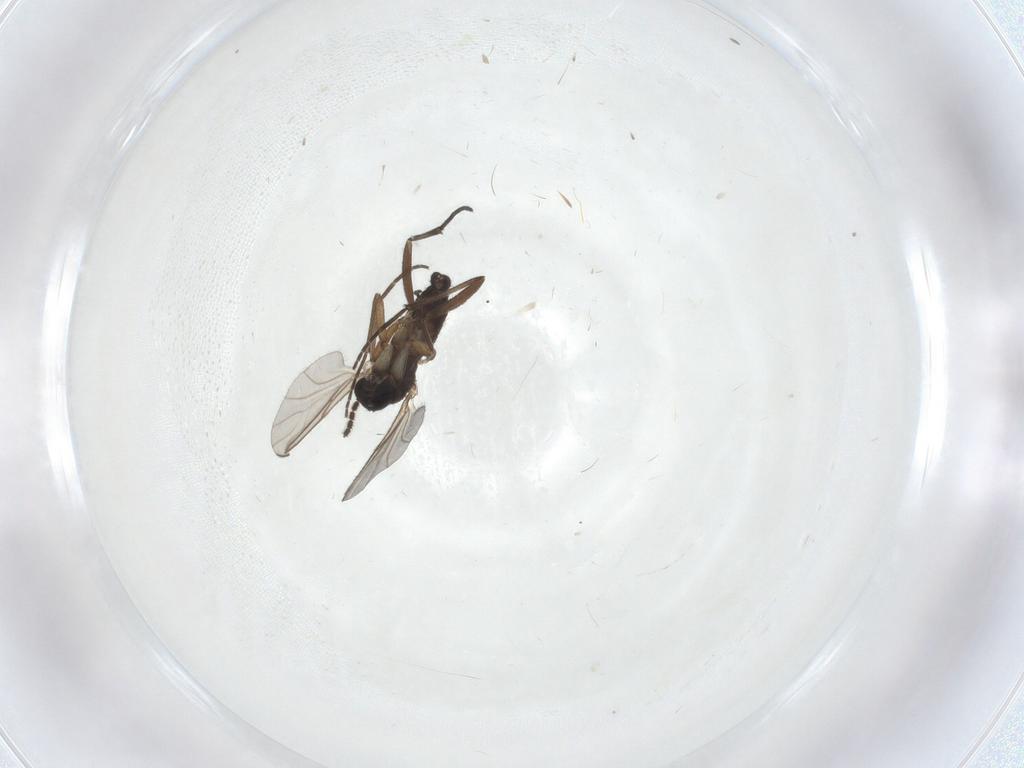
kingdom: Animalia
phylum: Arthropoda
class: Insecta
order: Diptera
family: Sciaridae
